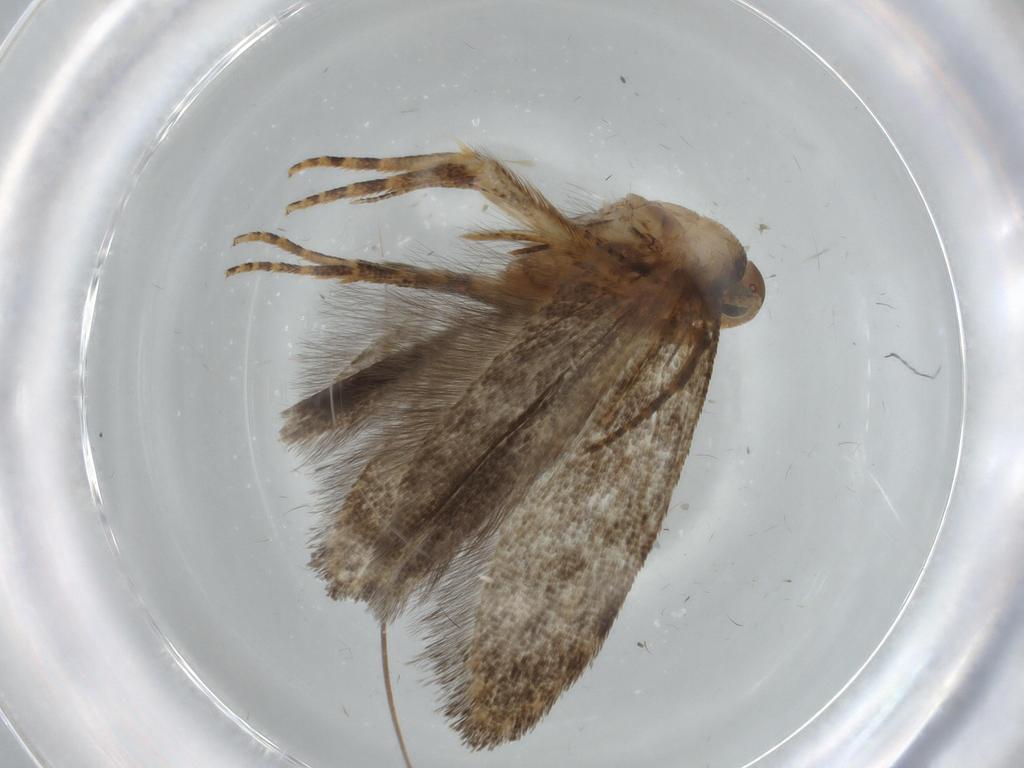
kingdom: Animalia
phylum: Arthropoda
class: Insecta
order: Lepidoptera
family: Gelechiidae
